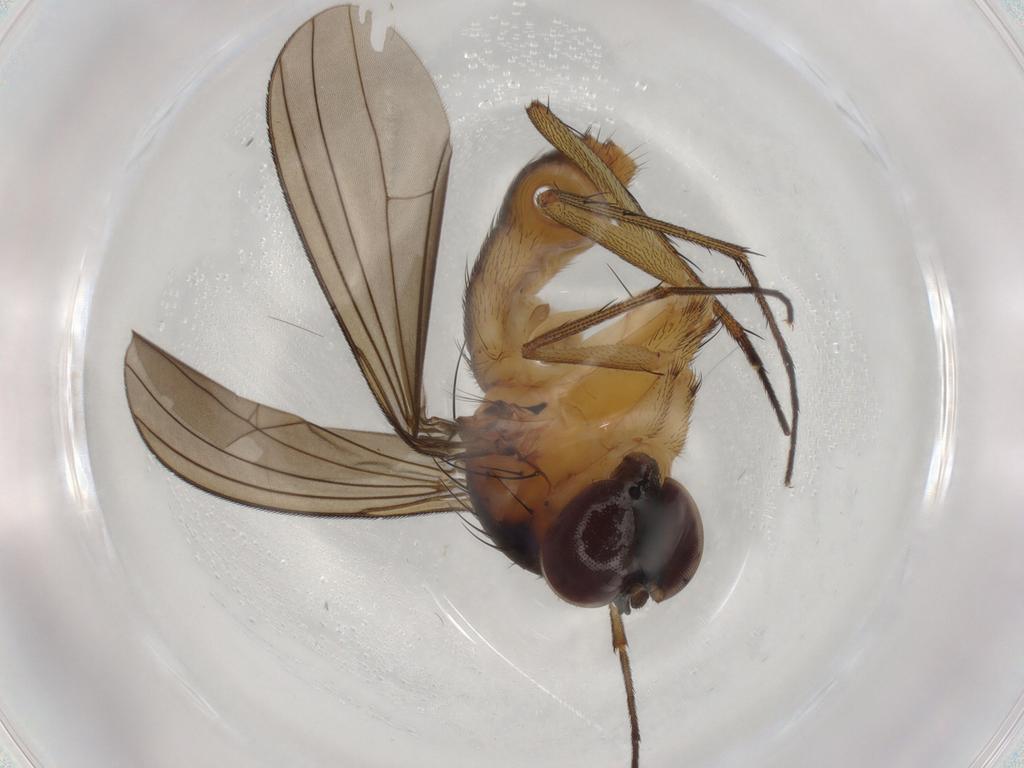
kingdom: Animalia
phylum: Arthropoda
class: Insecta
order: Diptera
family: Dolichopodidae
